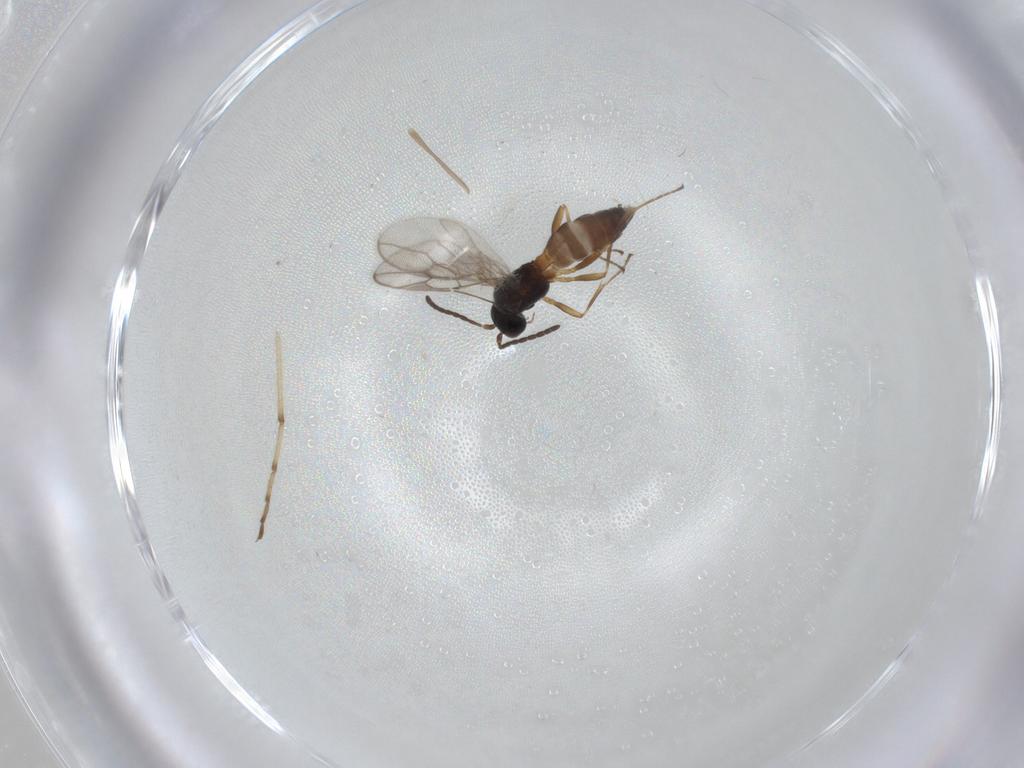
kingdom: Animalia
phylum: Arthropoda
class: Insecta
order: Hymenoptera
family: Braconidae
